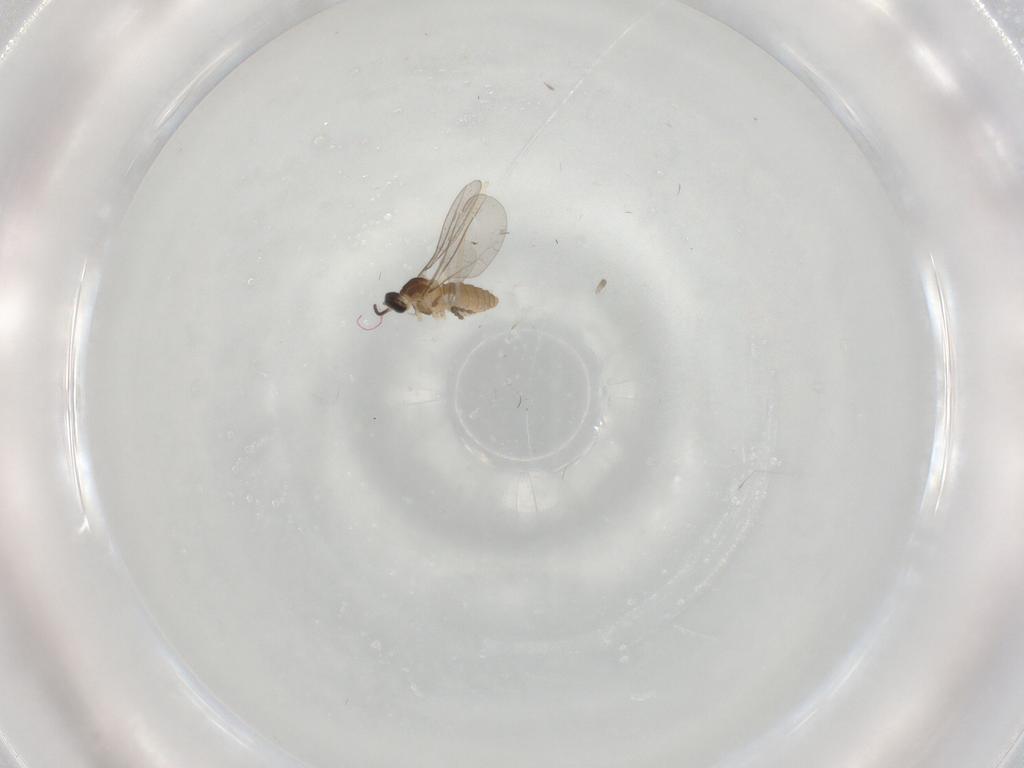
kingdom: Animalia
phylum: Arthropoda
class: Insecta
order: Diptera
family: Cecidomyiidae
